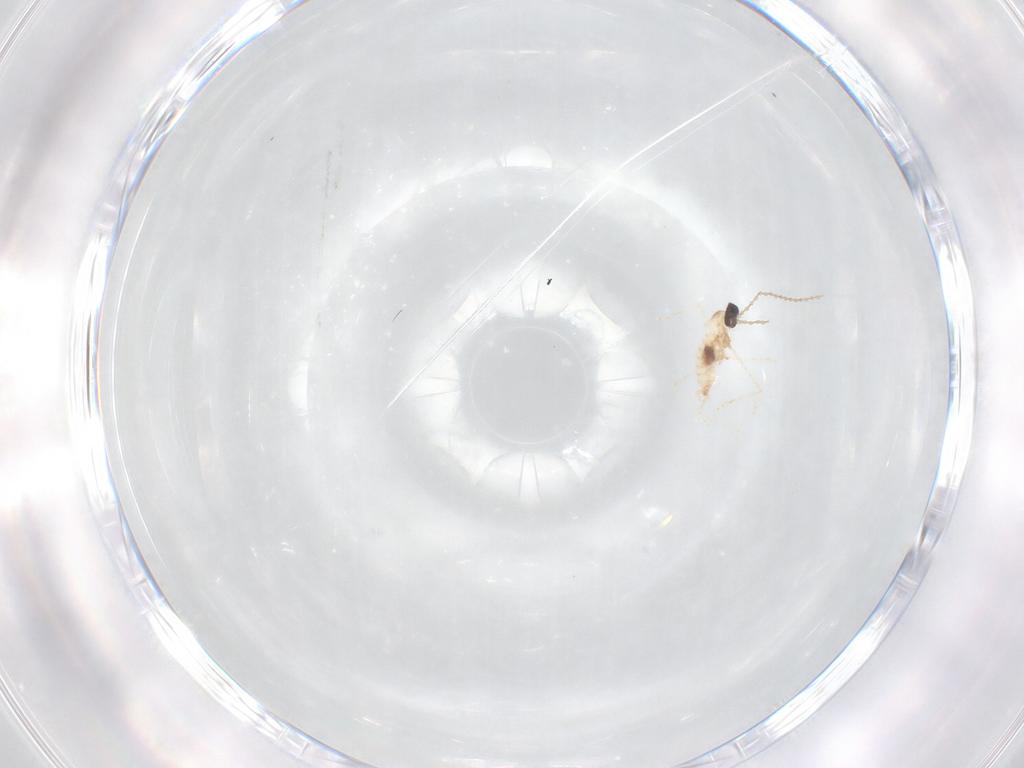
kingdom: Animalia
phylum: Arthropoda
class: Insecta
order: Diptera
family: Cecidomyiidae
